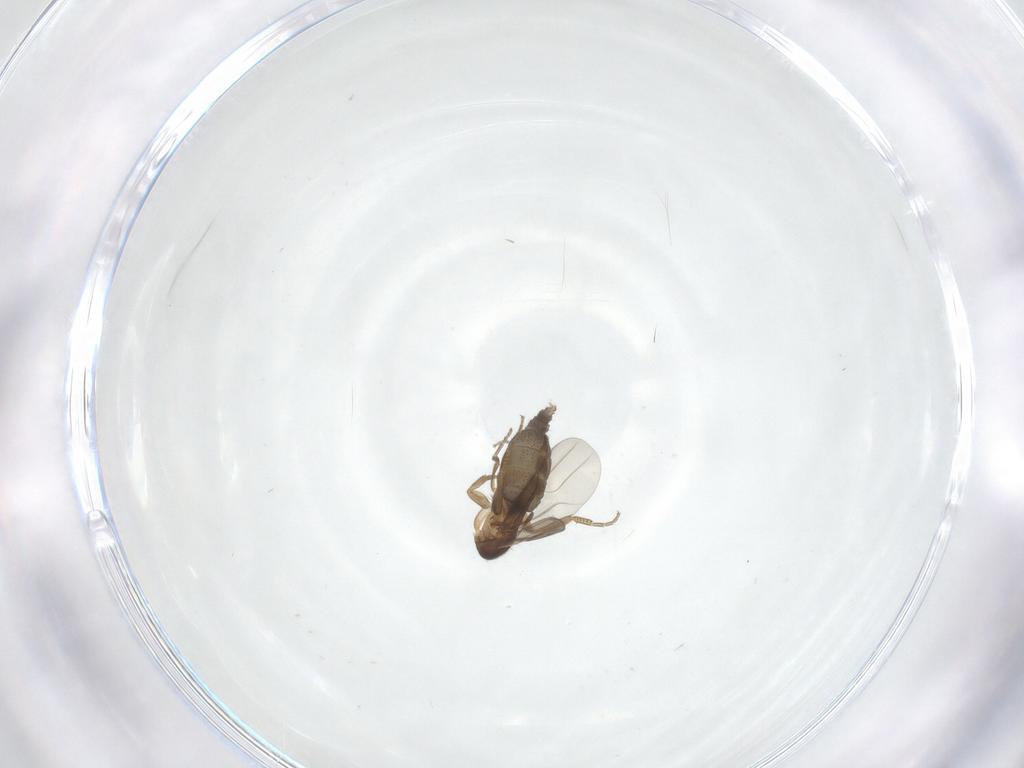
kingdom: Animalia
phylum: Arthropoda
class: Insecta
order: Diptera
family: Phoridae
